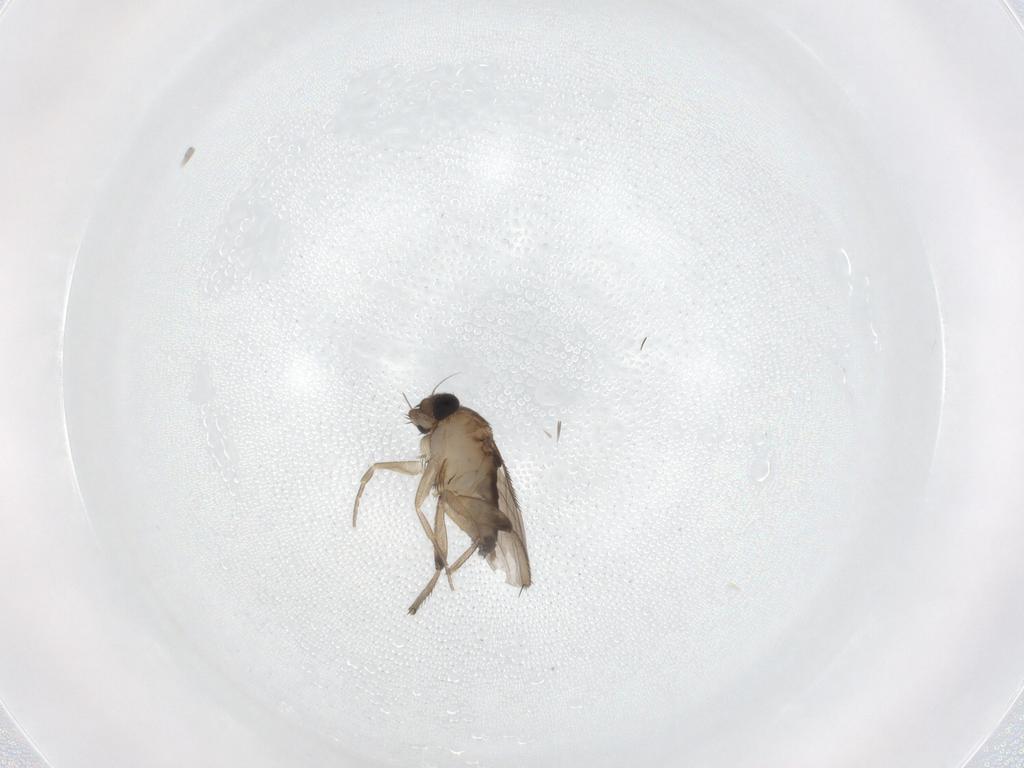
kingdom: Animalia
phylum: Arthropoda
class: Insecta
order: Diptera
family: Phoridae
